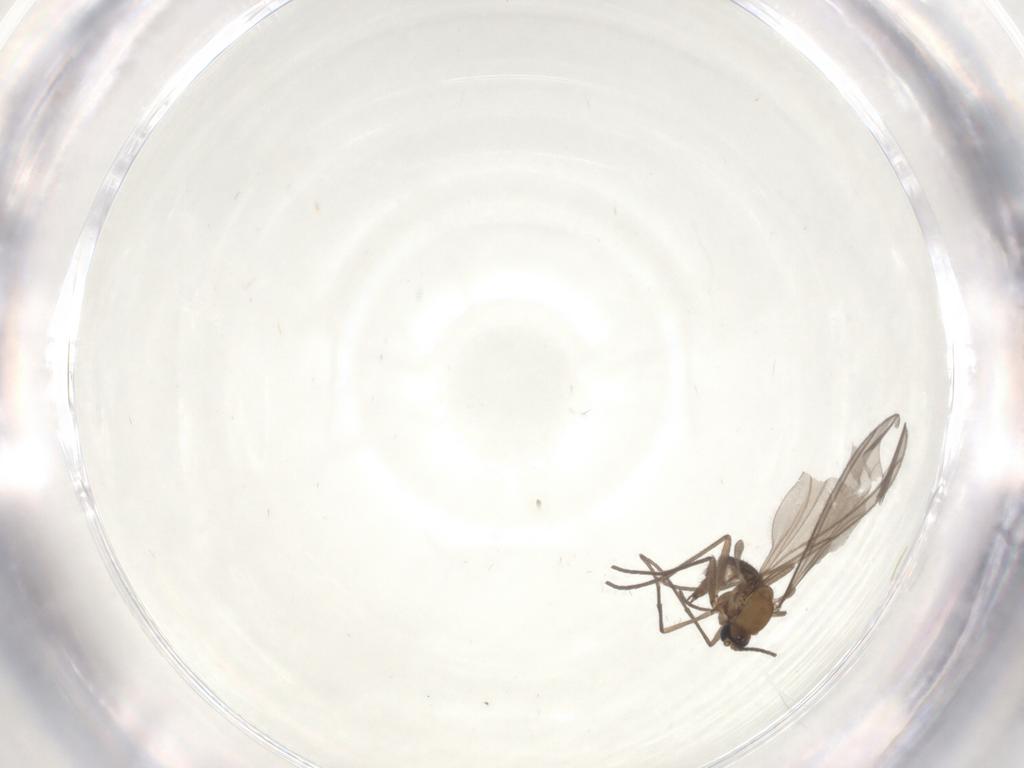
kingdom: Animalia
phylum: Arthropoda
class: Insecta
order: Diptera
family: Sciaridae
